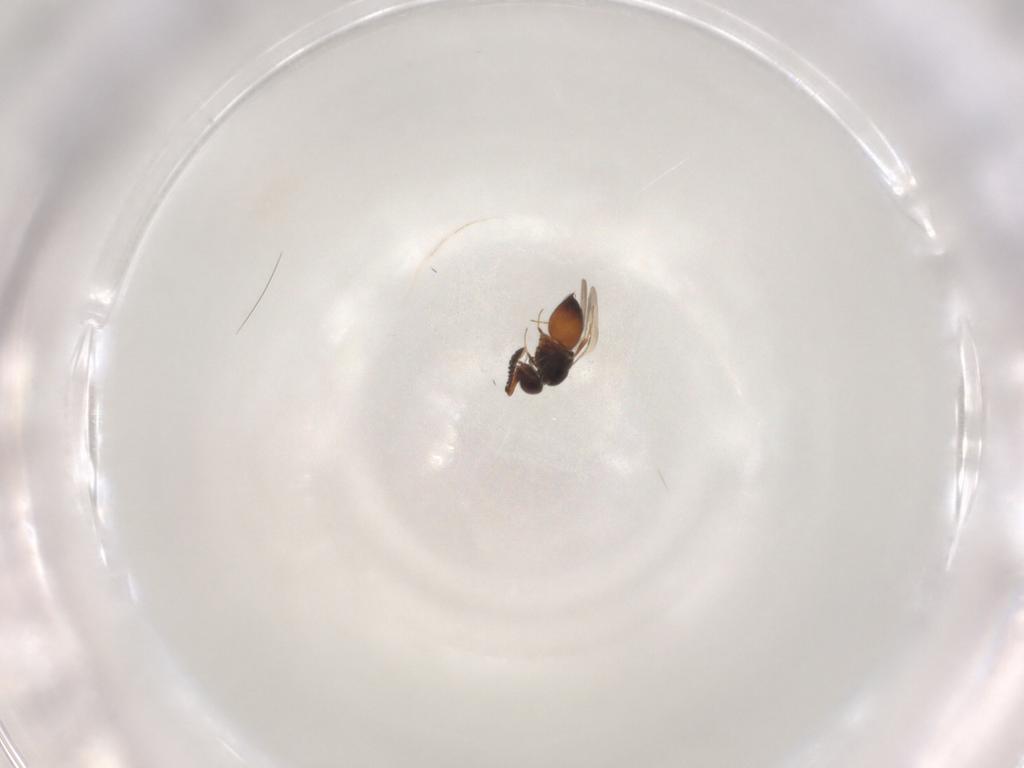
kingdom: Animalia
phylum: Arthropoda
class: Insecta
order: Hymenoptera
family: Ceraphronidae
